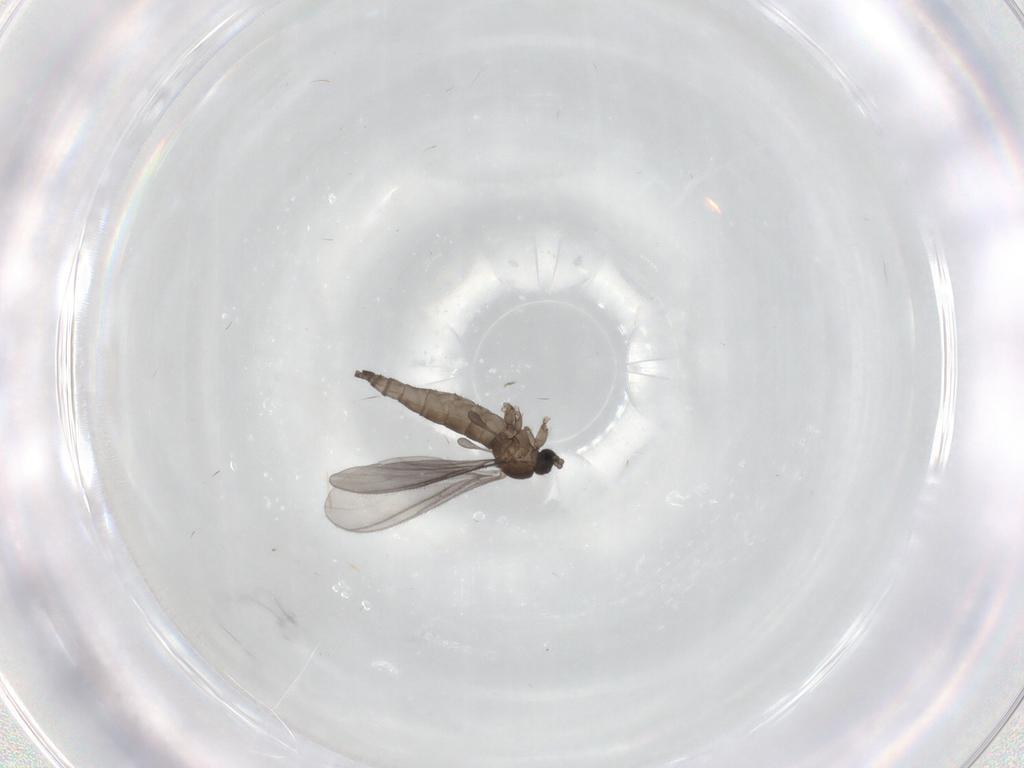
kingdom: Animalia
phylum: Arthropoda
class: Insecta
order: Diptera
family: Sciaridae
